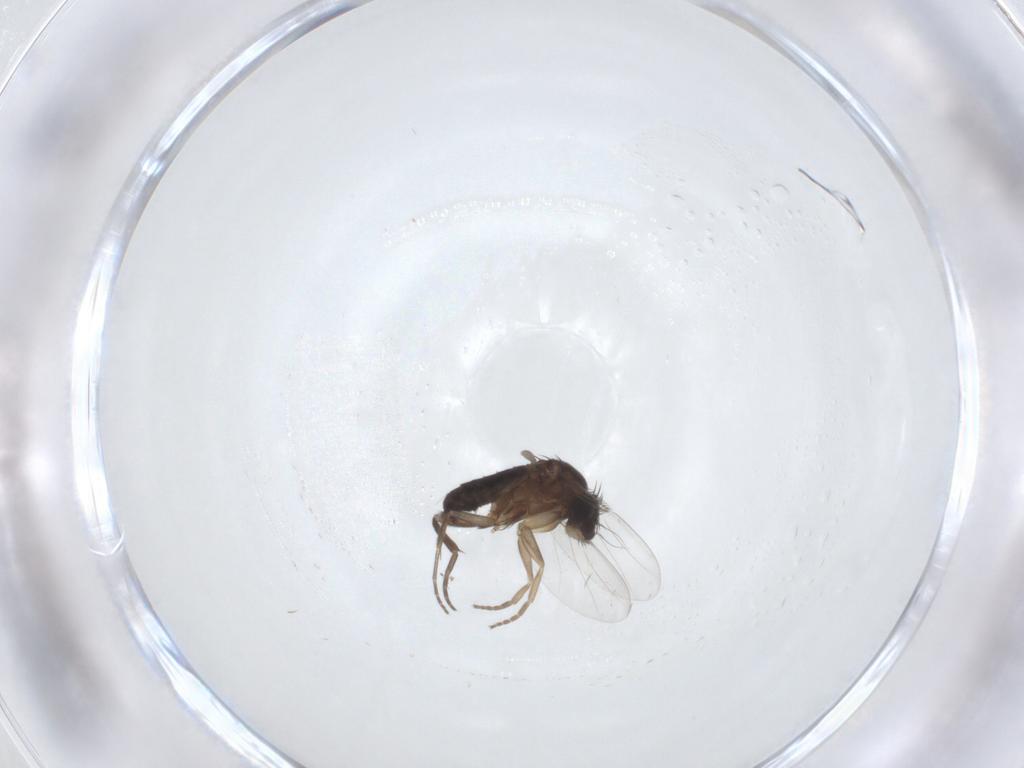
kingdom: Animalia
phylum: Arthropoda
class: Insecta
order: Diptera
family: Phoridae
